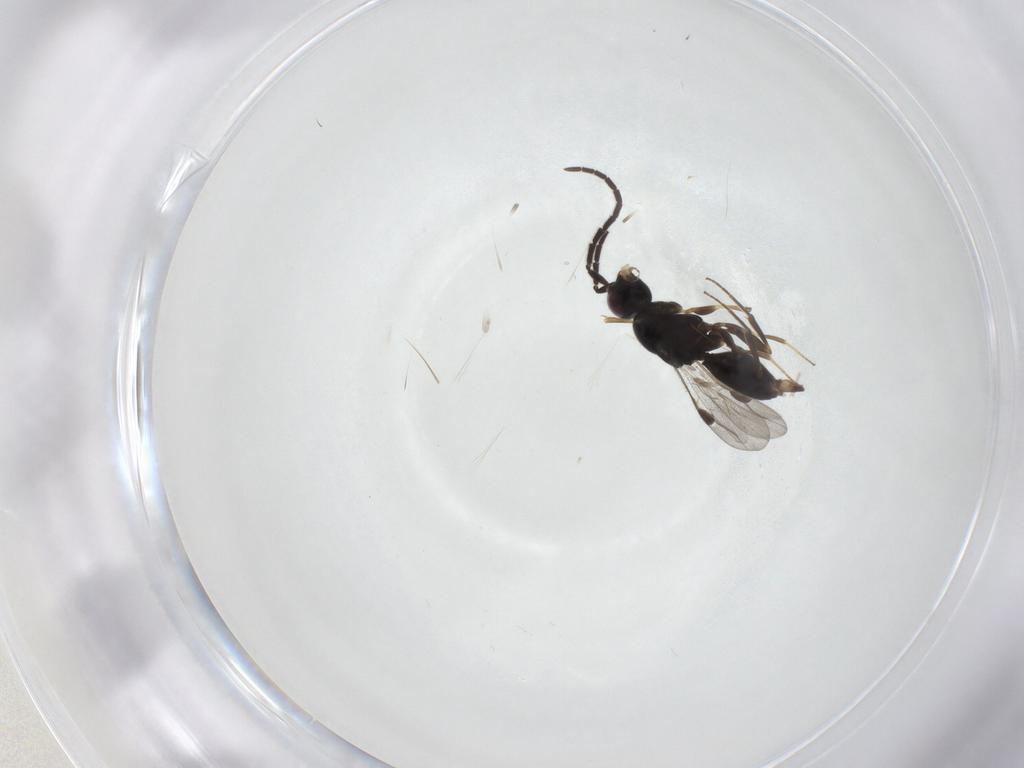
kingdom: Animalia
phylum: Arthropoda
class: Insecta
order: Hymenoptera
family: Megaspilidae
